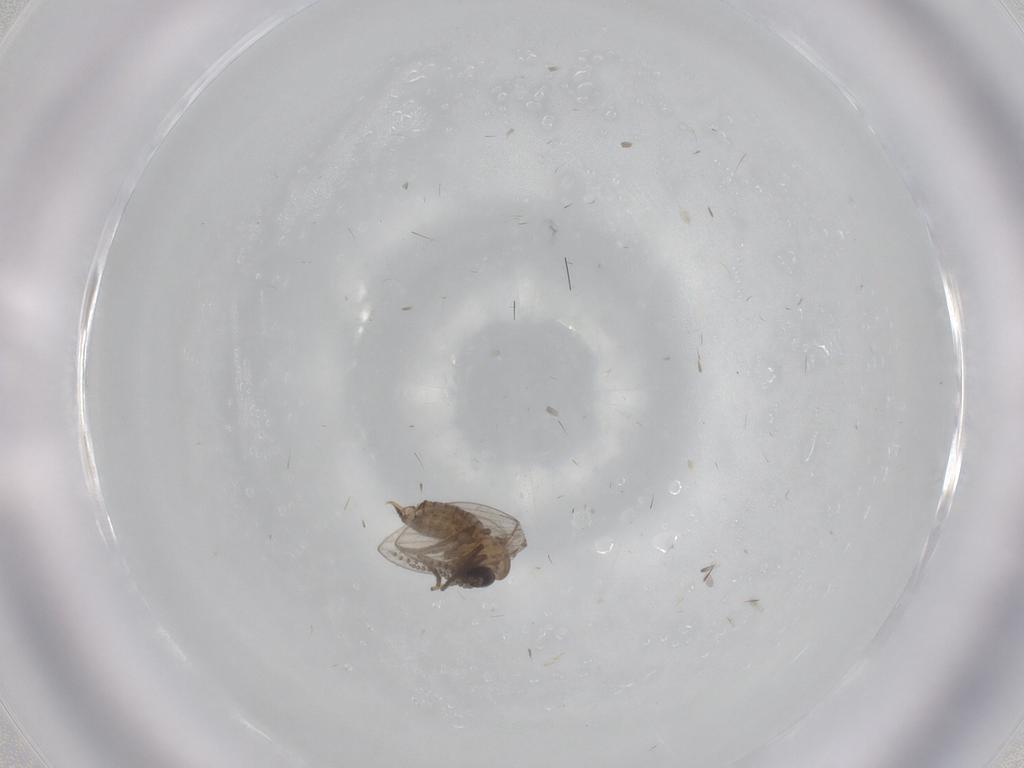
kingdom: Animalia
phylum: Arthropoda
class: Insecta
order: Diptera
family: Psychodidae
